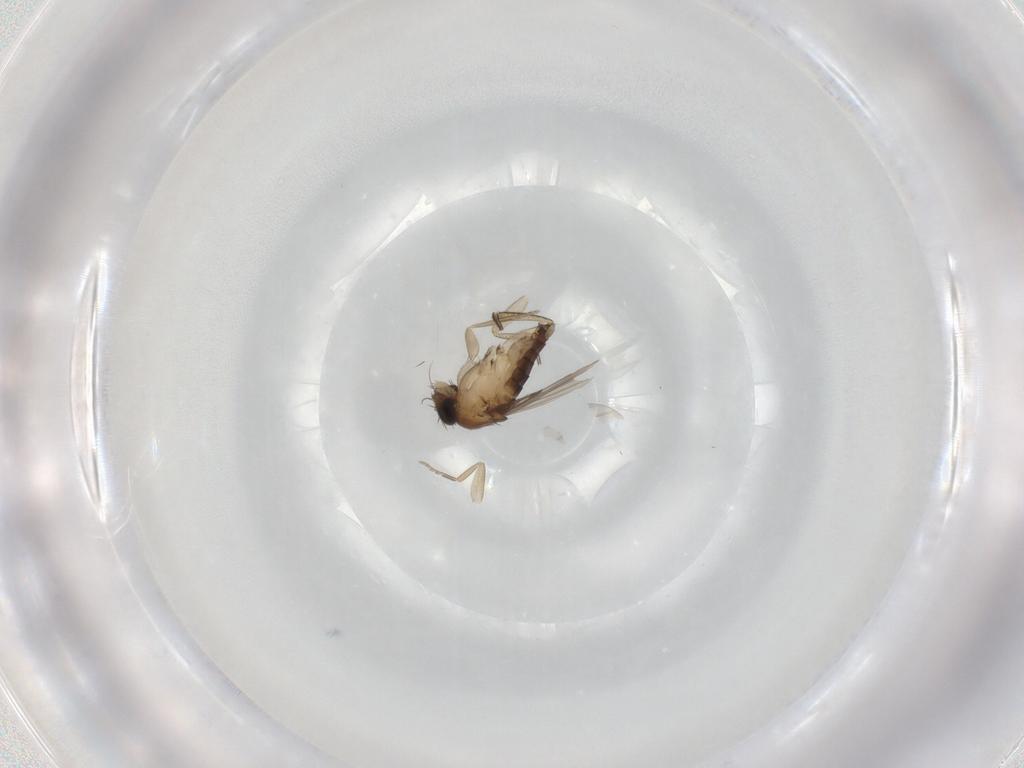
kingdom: Animalia
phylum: Arthropoda
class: Insecta
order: Diptera
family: Phoridae
